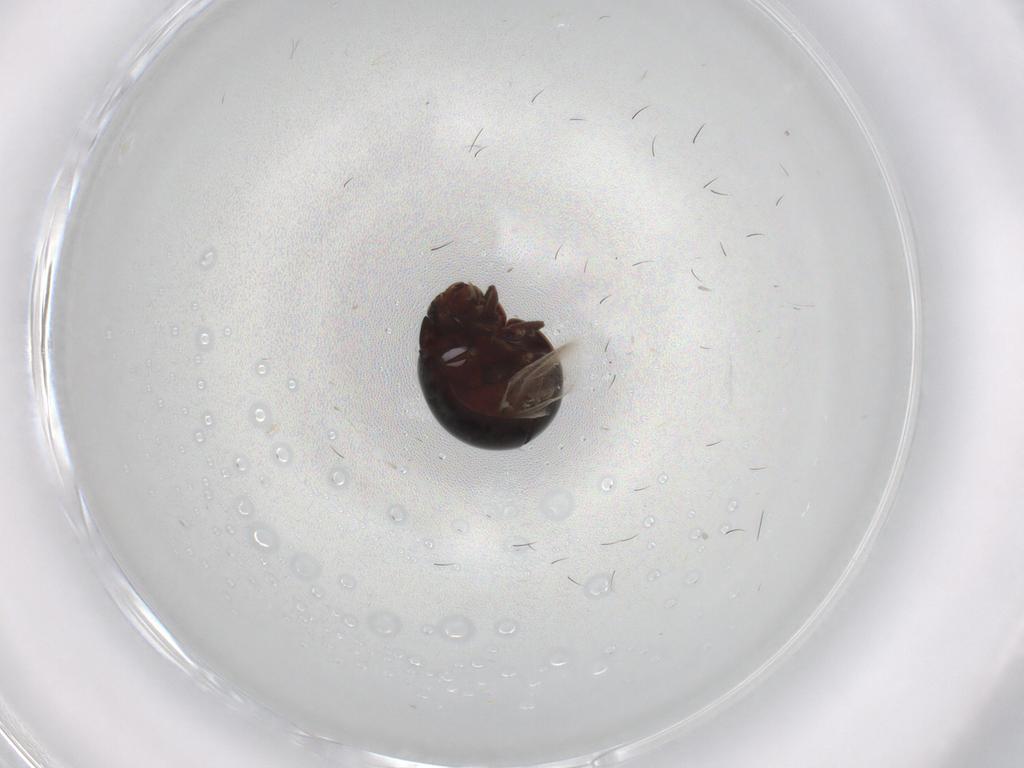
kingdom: Animalia
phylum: Arthropoda
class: Insecta
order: Coleoptera
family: Coccinellidae
